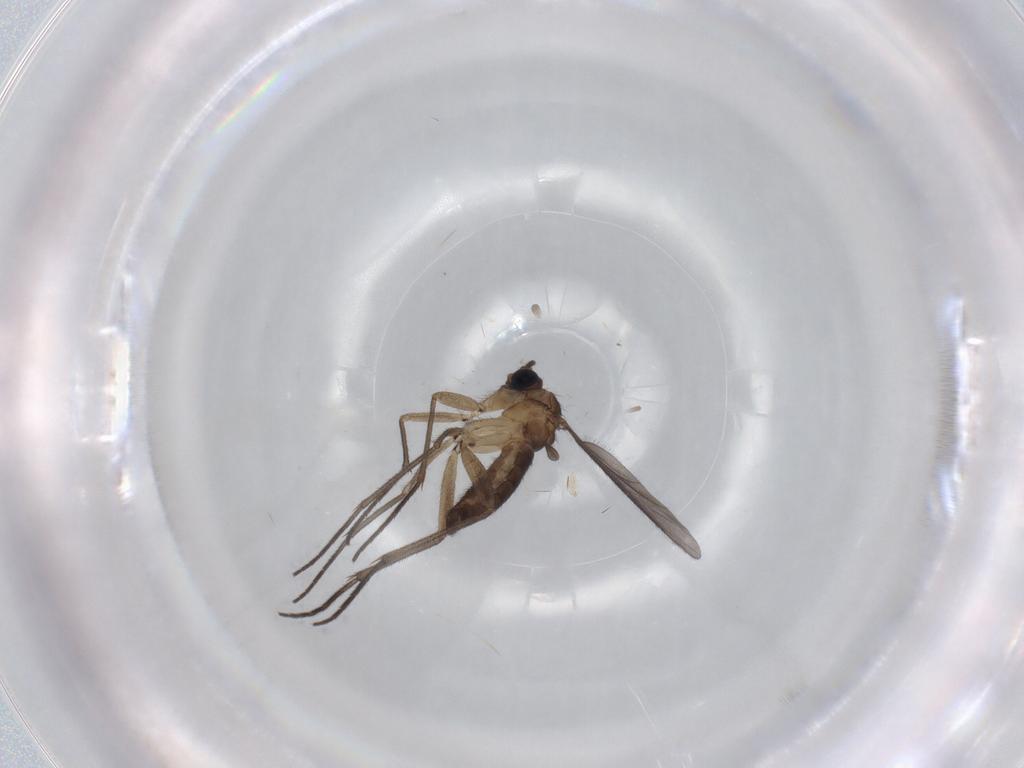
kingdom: Animalia
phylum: Arthropoda
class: Insecta
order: Diptera
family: Sciaridae
